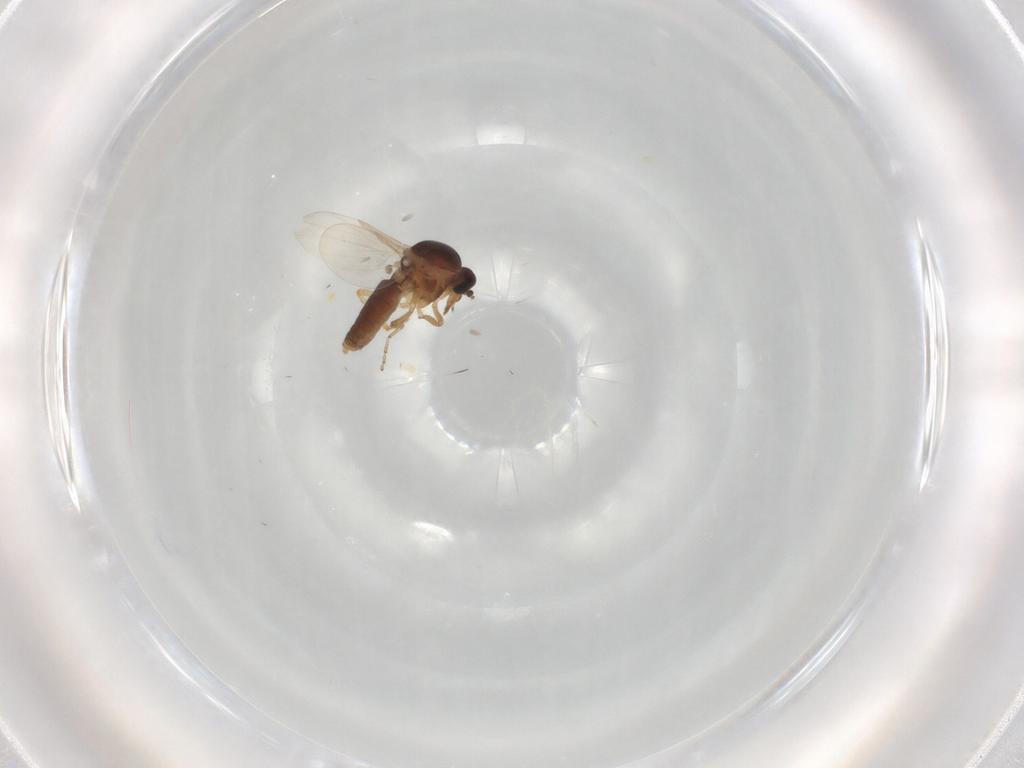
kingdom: Animalia
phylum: Arthropoda
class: Insecta
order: Diptera
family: Ceratopogonidae
